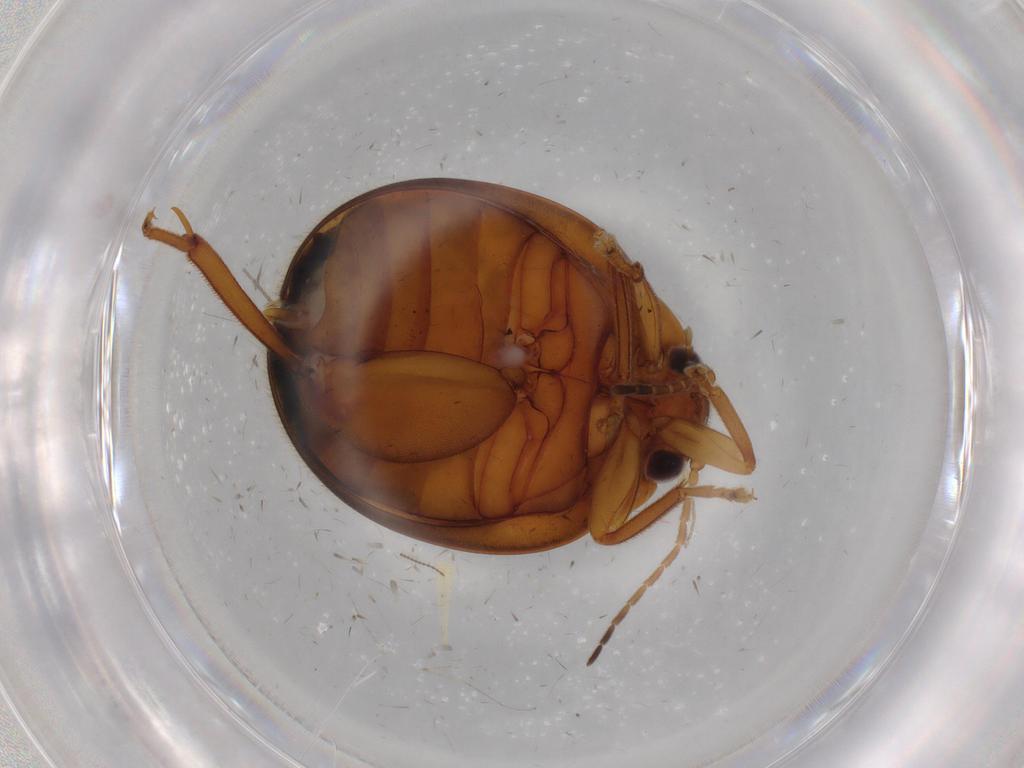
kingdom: Animalia
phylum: Arthropoda
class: Insecta
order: Coleoptera
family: Scirtidae
